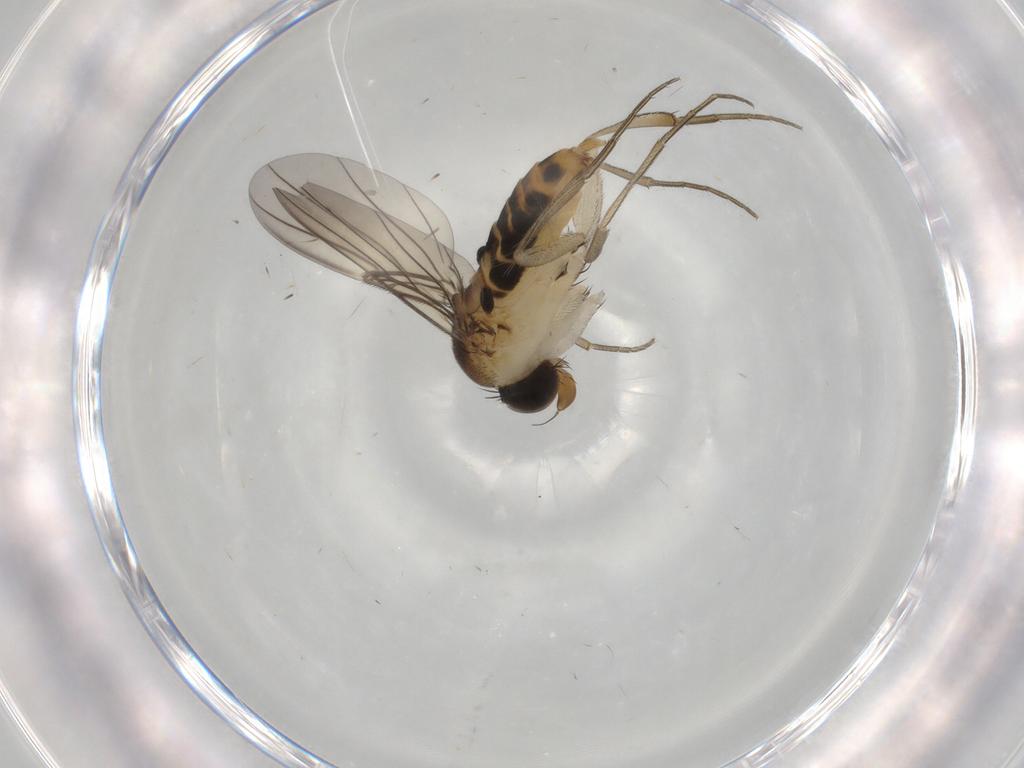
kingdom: Animalia
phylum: Arthropoda
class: Insecta
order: Diptera
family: Phoridae
